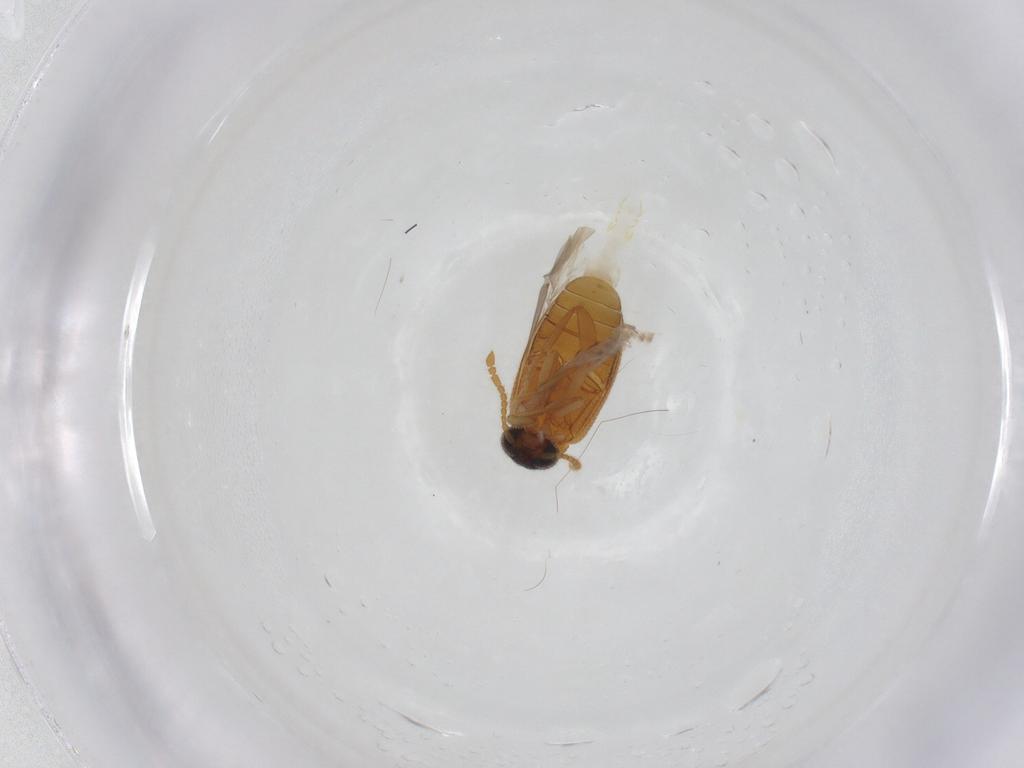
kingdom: Animalia
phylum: Arthropoda
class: Insecta
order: Coleoptera
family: Aderidae
